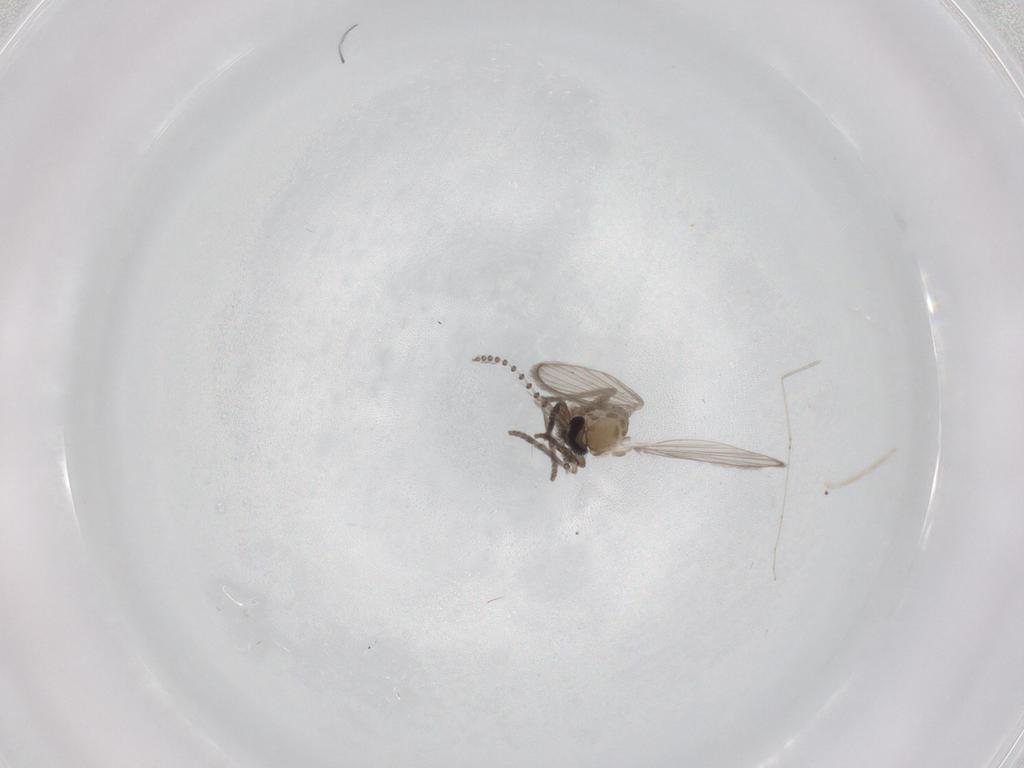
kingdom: Animalia
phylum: Arthropoda
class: Insecta
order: Diptera
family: Psychodidae
